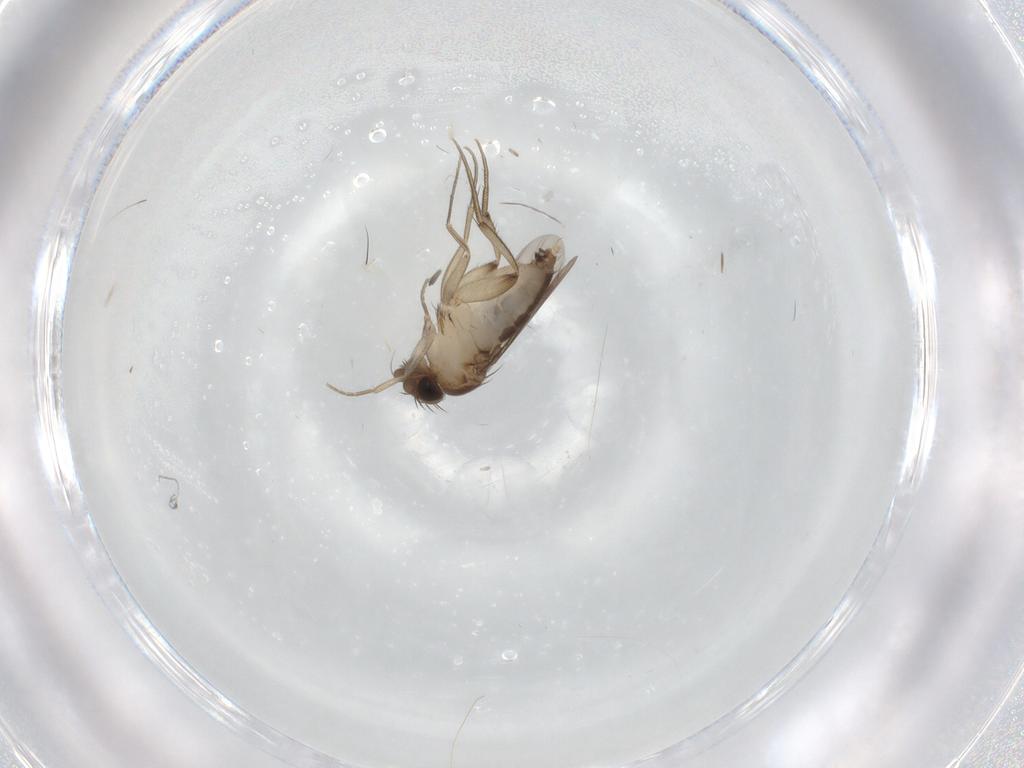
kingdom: Animalia
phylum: Arthropoda
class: Insecta
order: Diptera
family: Phoridae
